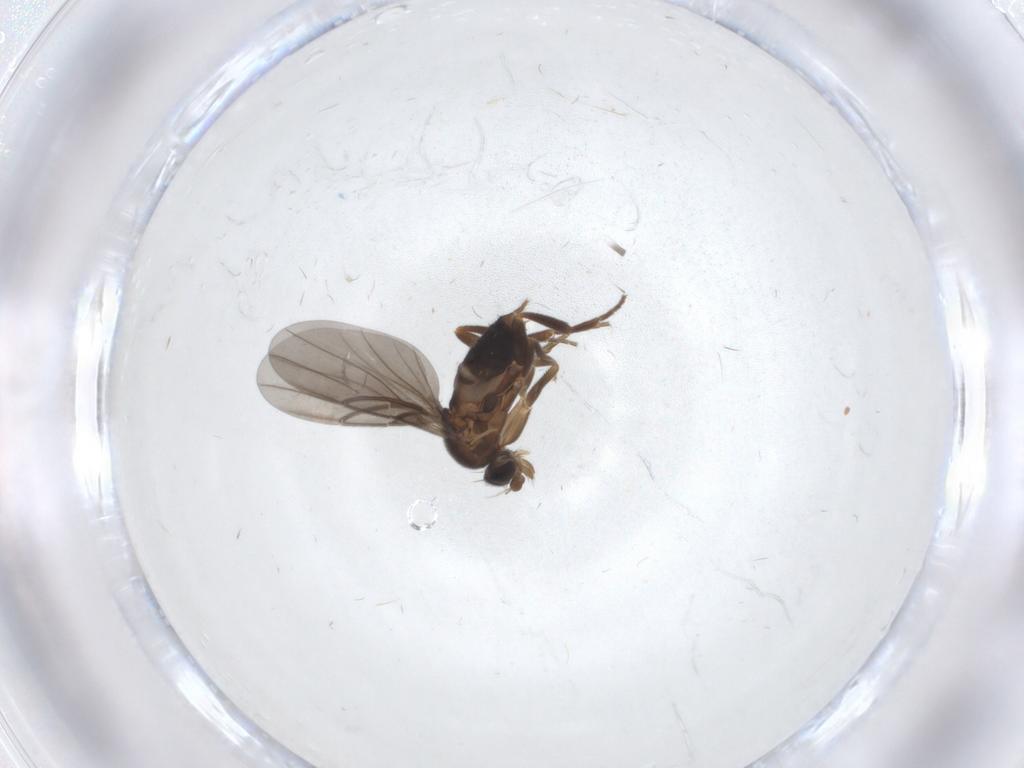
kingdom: Animalia
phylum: Arthropoda
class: Insecta
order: Diptera
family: Phoridae
